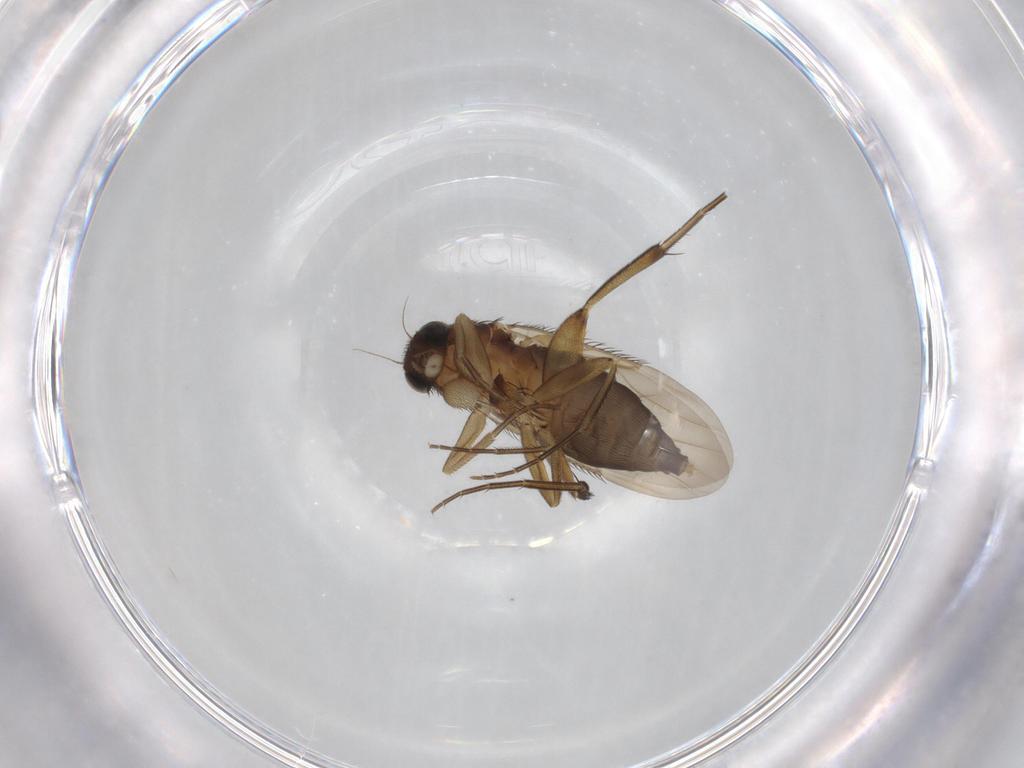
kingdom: Animalia
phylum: Arthropoda
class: Insecta
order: Diptera
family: Phoridae
